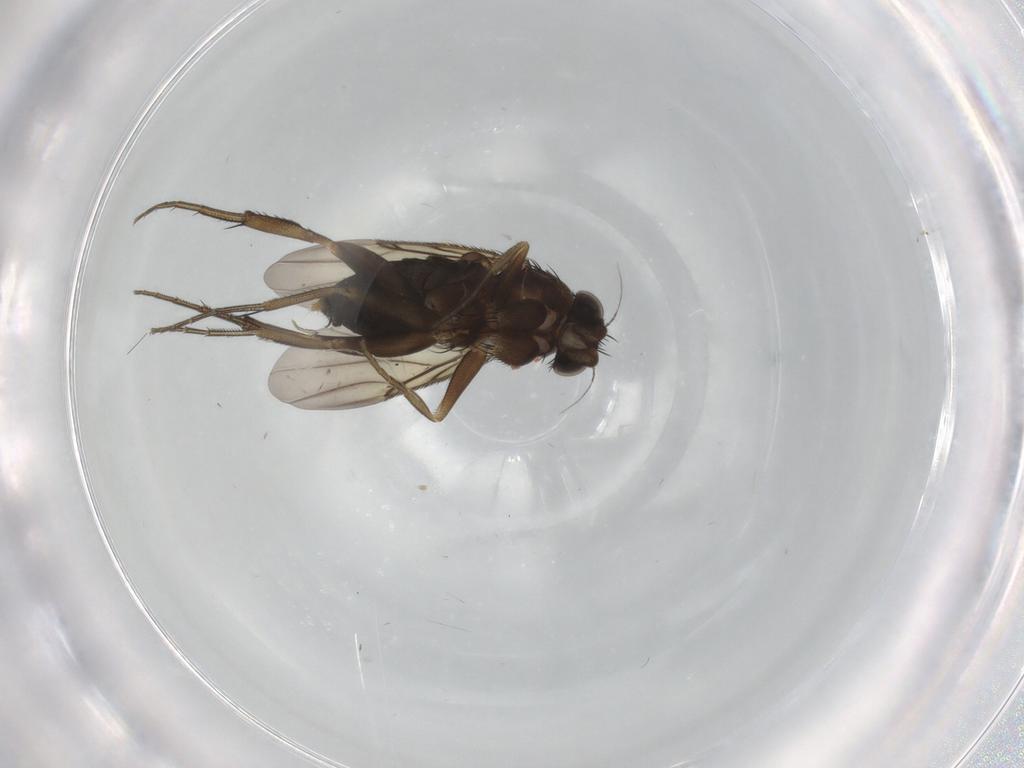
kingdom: Animalia
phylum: Arthropoda
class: Insecta
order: Diptera
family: Phoridae
